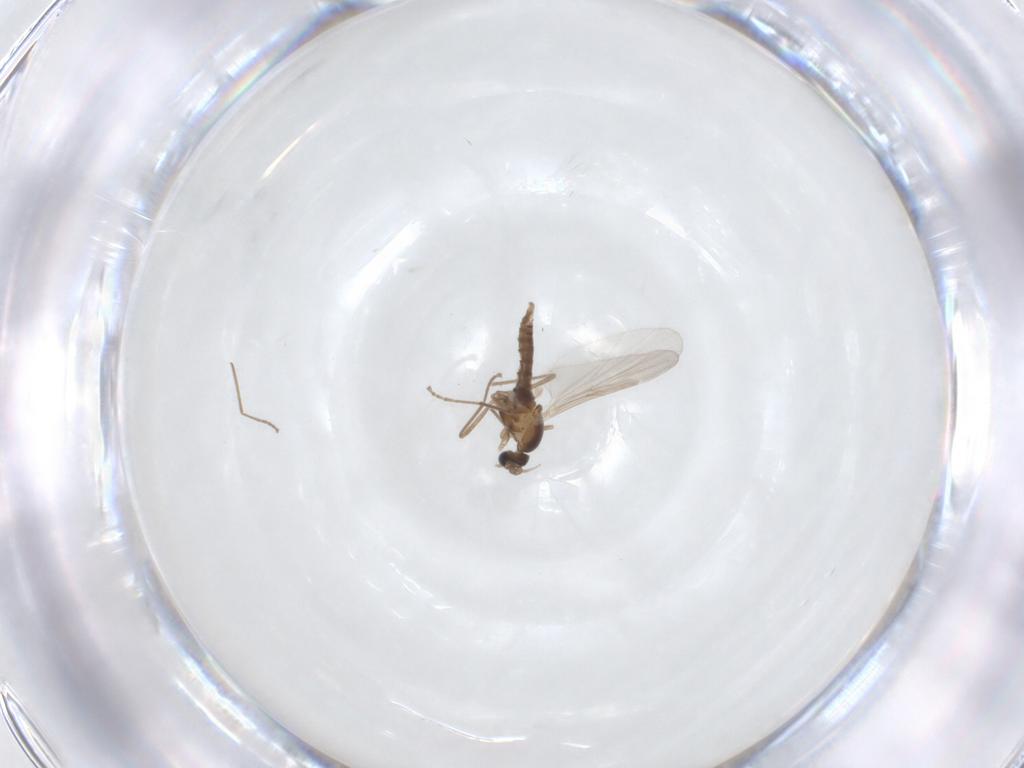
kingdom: Animalia
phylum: Arthropoda
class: Insecta
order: Diptera
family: Cecidomyiidae
